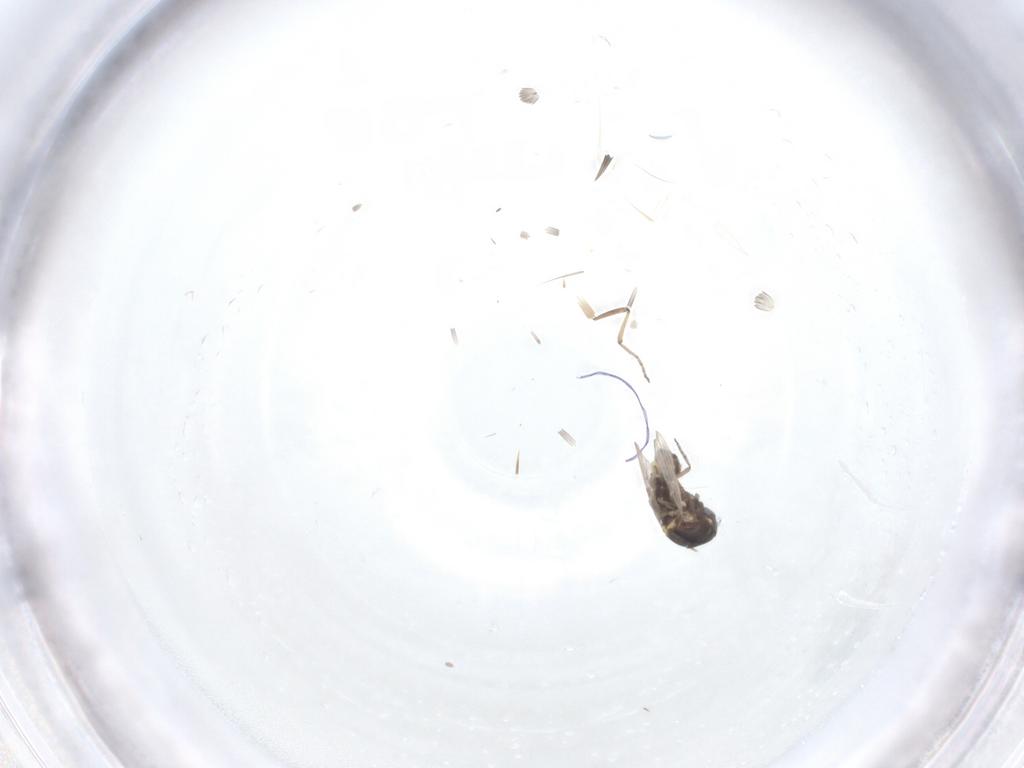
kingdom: Animalia
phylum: Arthropoda
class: Insecta
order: Diptera
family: Ceratopogonidae
